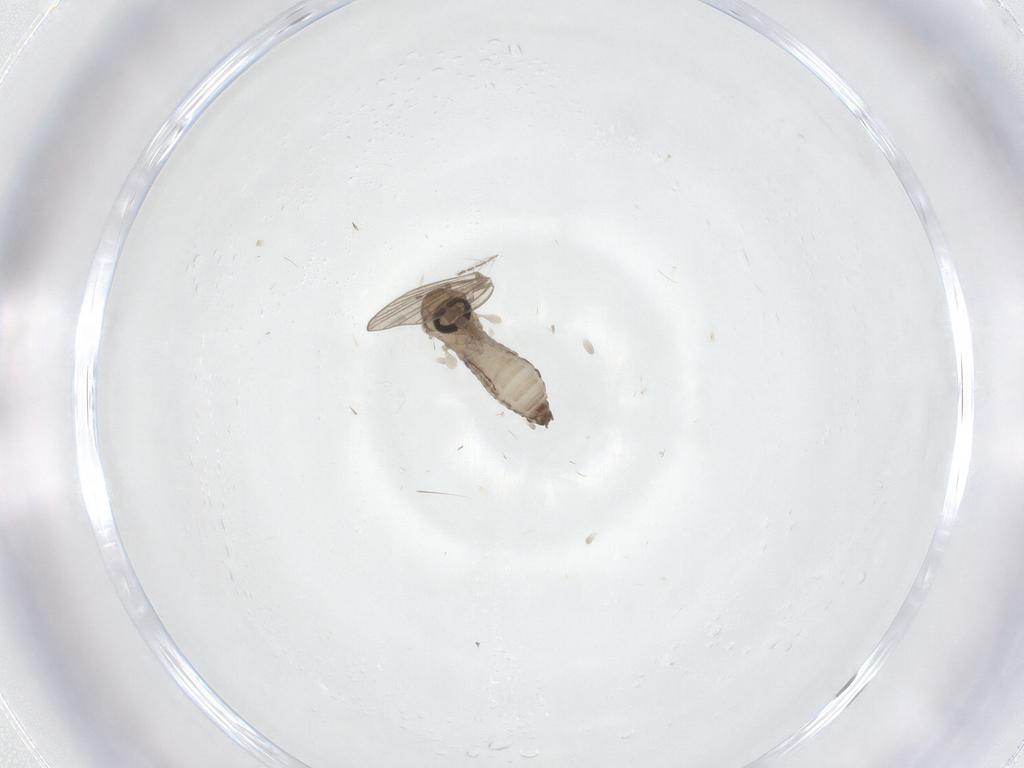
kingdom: Animalia
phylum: Arthropoda
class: Insecta
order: Diptera
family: Psychodidae
